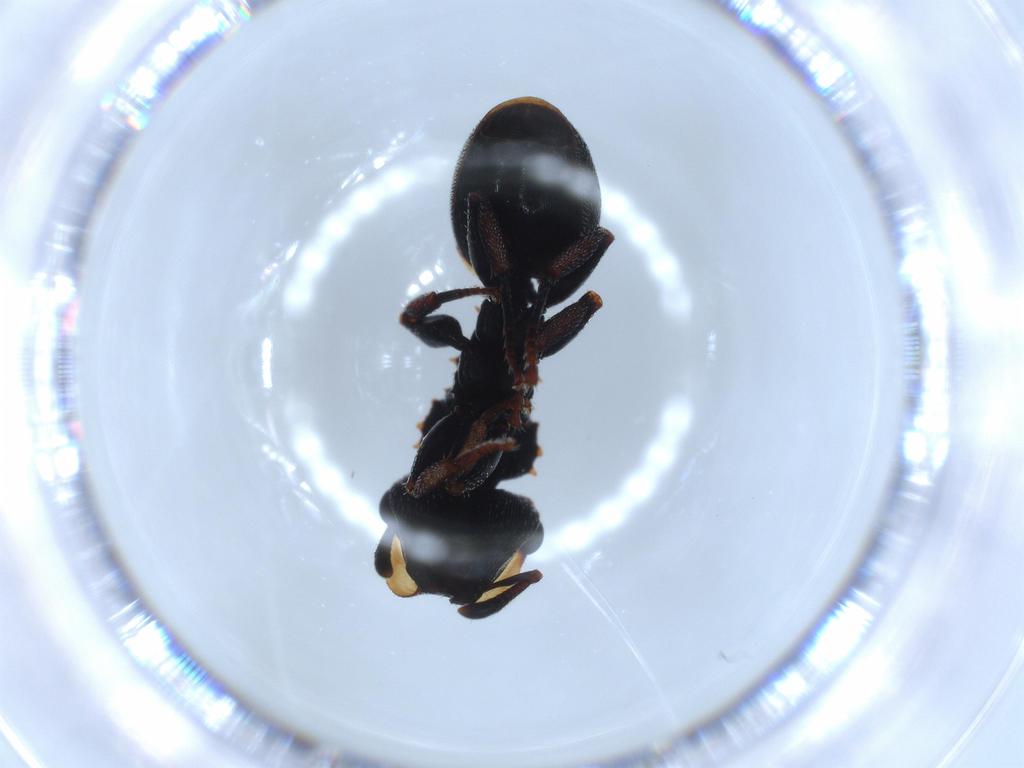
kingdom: Animalia
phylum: Arthropoda
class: Insecta
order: Hymenoptera
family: Formicidae
